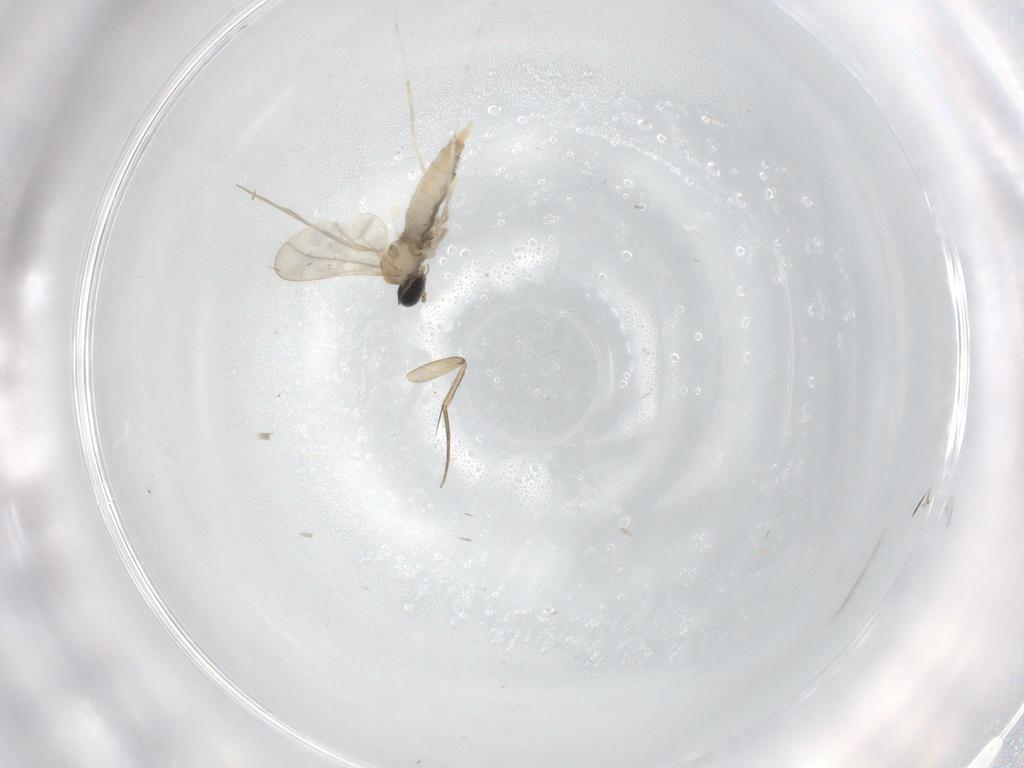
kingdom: Animalia
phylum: Arthropoda
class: Insecta
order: Diptera
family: Cecidomyiidae
